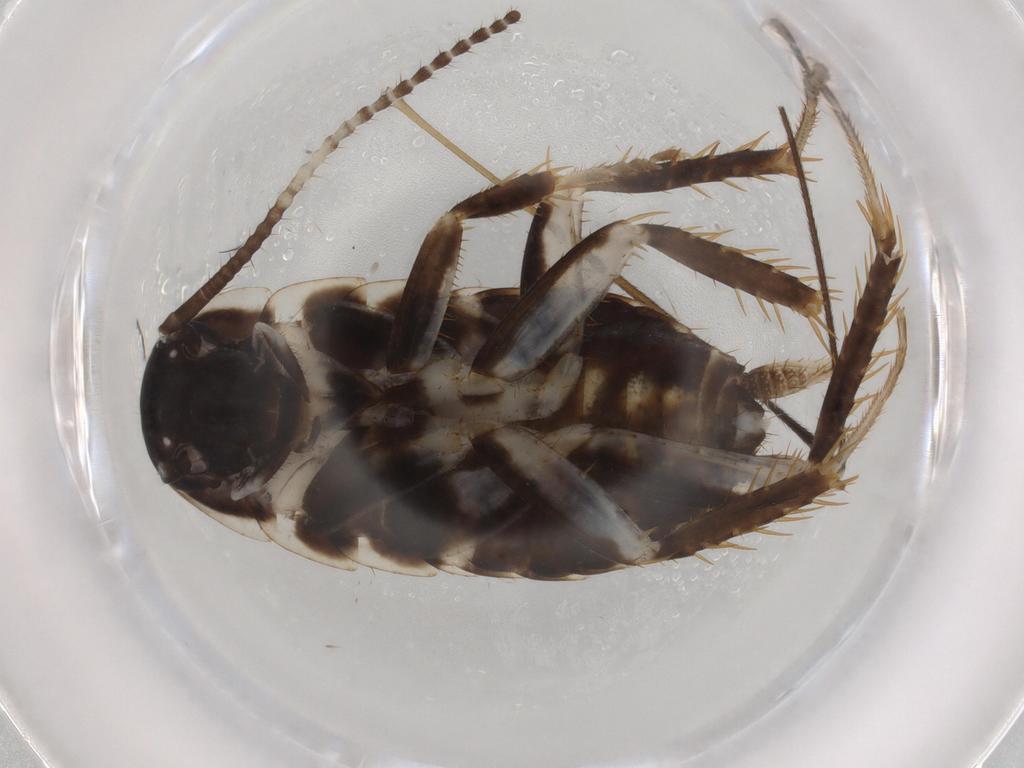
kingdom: Animalia
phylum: Arthropoda
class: Insecta
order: Blattodea
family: Ectobiidae
